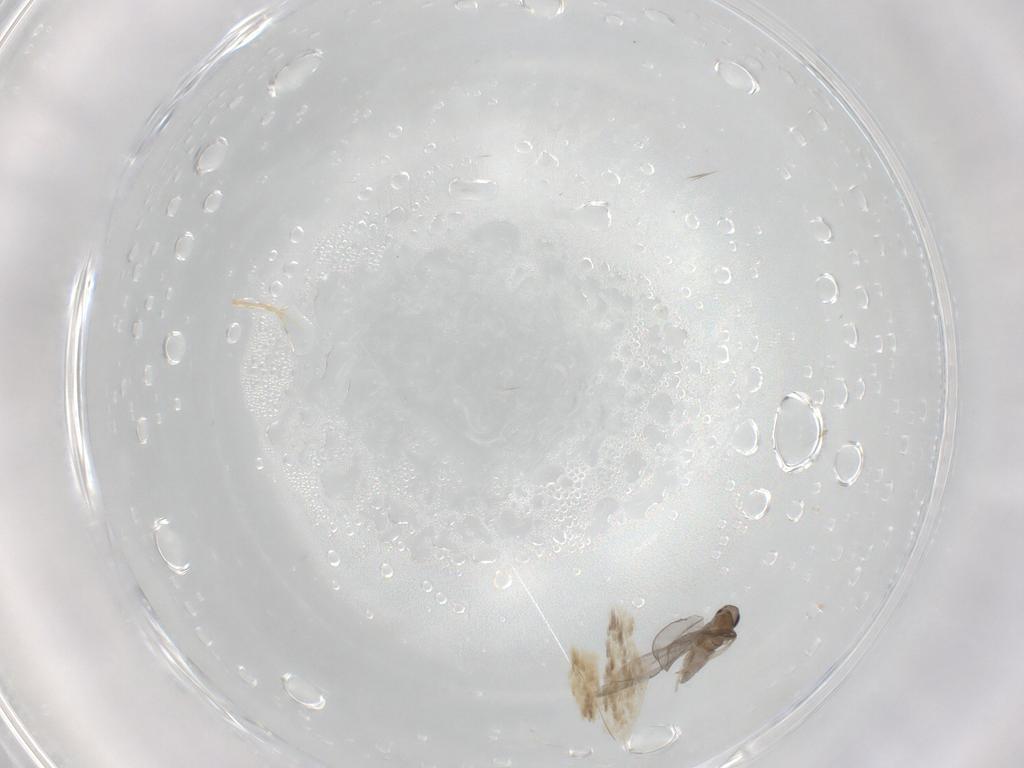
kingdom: Animalia
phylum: Arthropoda
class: Insecta
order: Diptera
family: Cecidomyiidae
